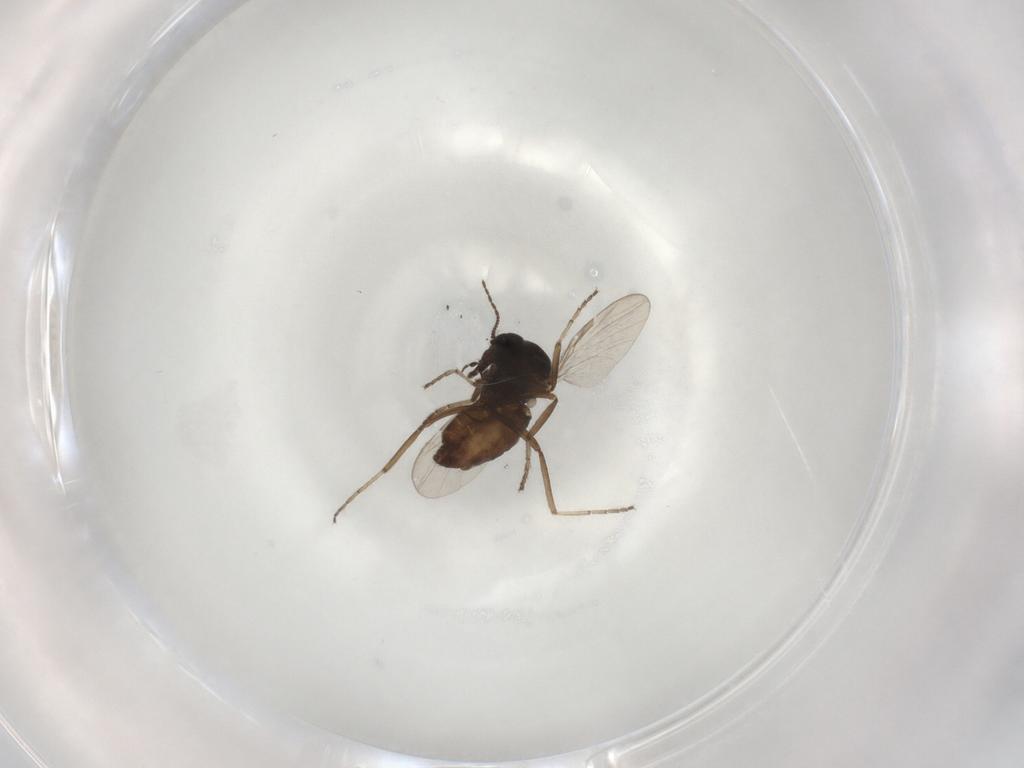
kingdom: Animalia
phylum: Arthropoda
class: Insecta
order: Diptera
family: Ceratopogonidae
